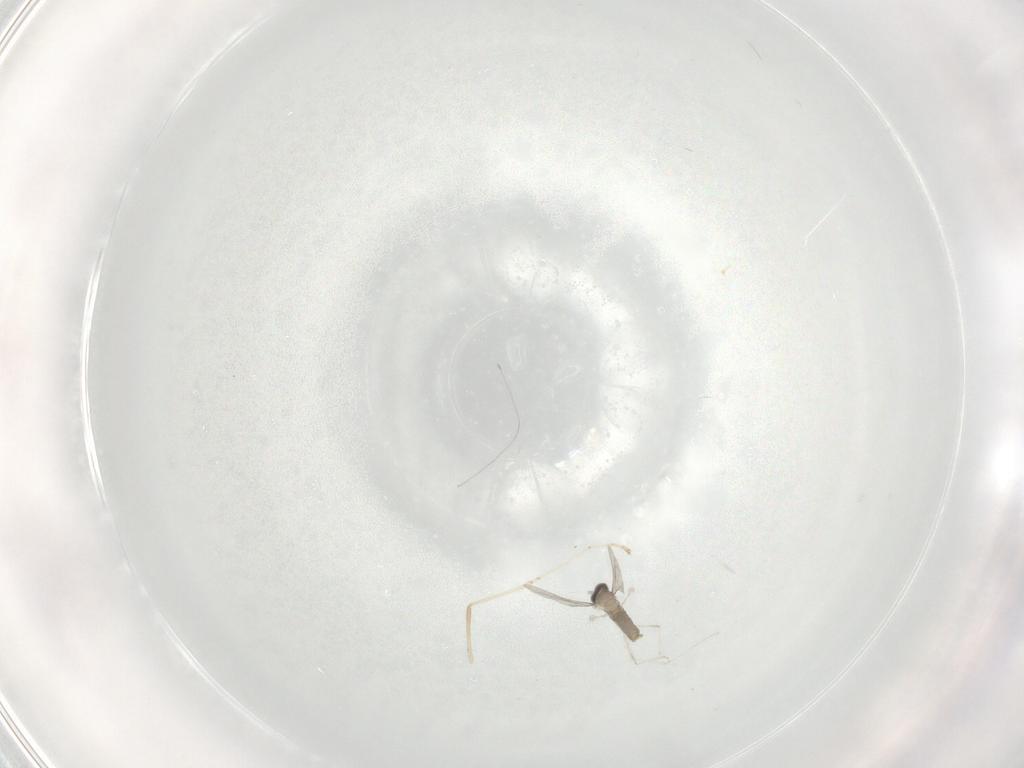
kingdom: Animalia
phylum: Arthropoda
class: Insecta
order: Diptera
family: Cecidomyiidae
